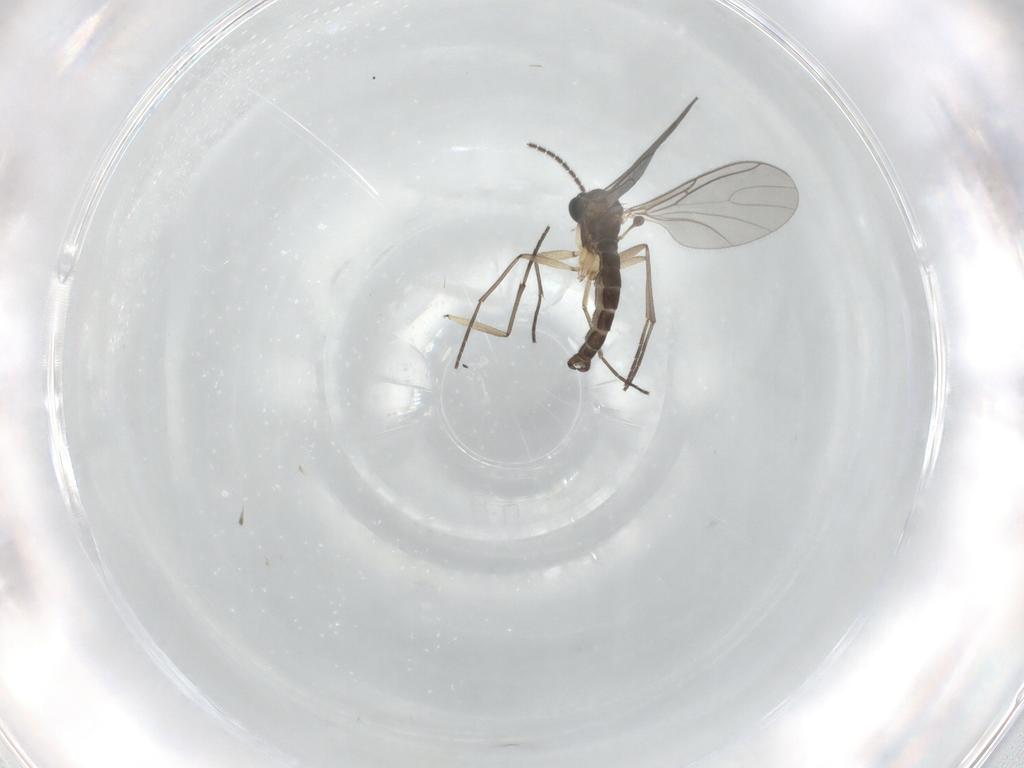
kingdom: Animalia
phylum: Arthropoda
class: Insecta
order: Diptera
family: Sciaridae
